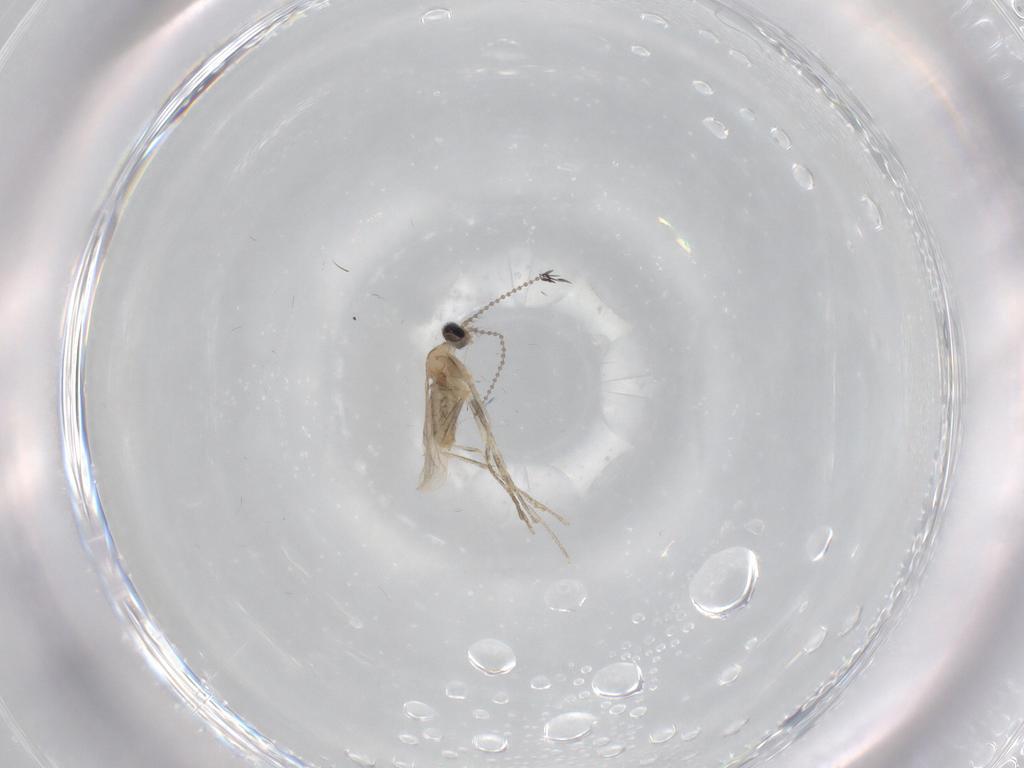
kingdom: Animalia
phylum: Arthropoda
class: Insecta
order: Diptera
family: Cecidomyiidae
